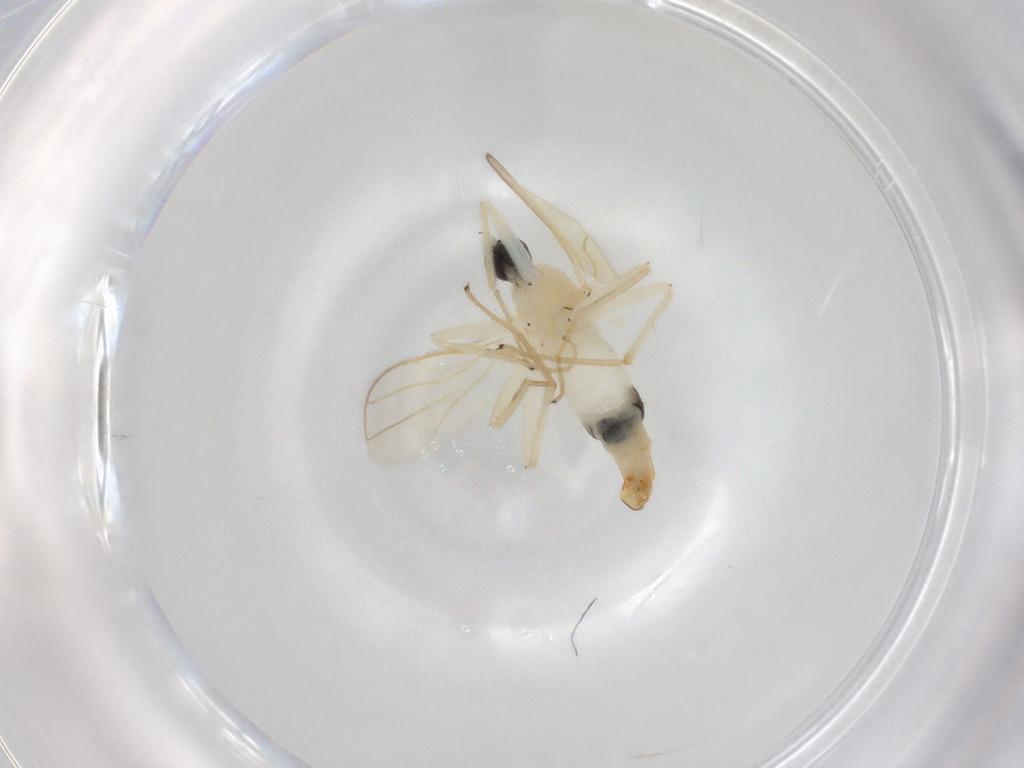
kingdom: Animalia
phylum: Arthropoda
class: Insecta
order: Diptera
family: Hybotidae
